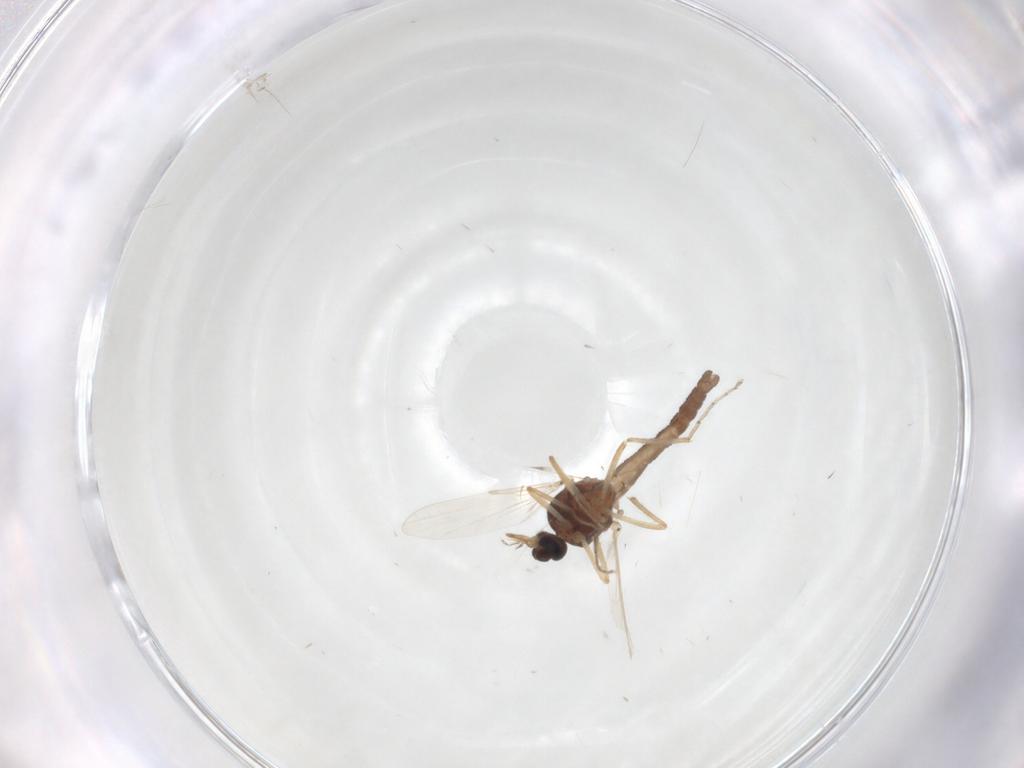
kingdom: Animalia
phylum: Arthropoda
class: Insecta
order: Diptera
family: Ceratopogonidae
